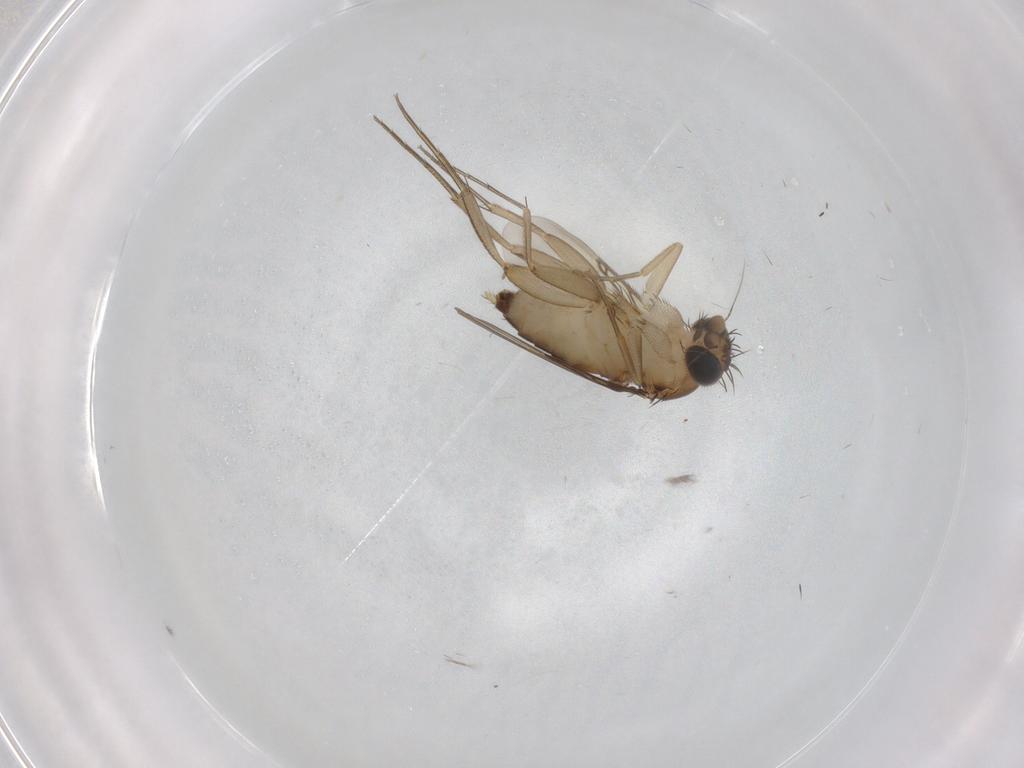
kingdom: Animalia
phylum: Arthropoda
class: Insecta
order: Diptera
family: Phoridae
